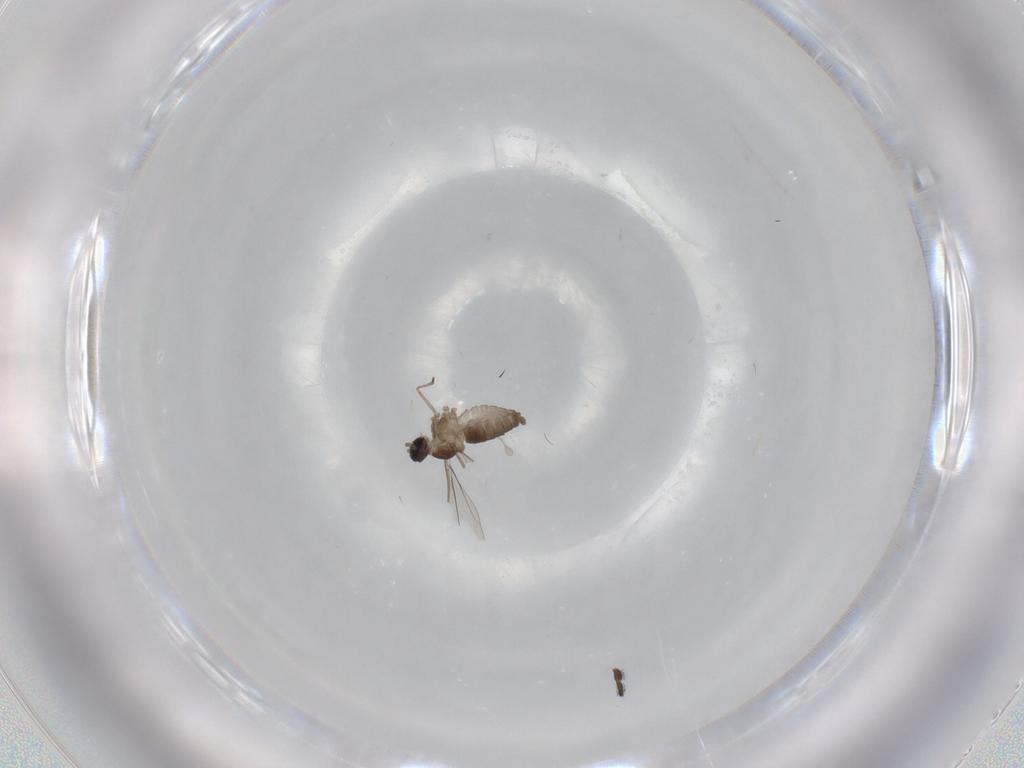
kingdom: Animalia
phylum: Arthropoda
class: Insecta
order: Diptera
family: Cecidomyiidae
